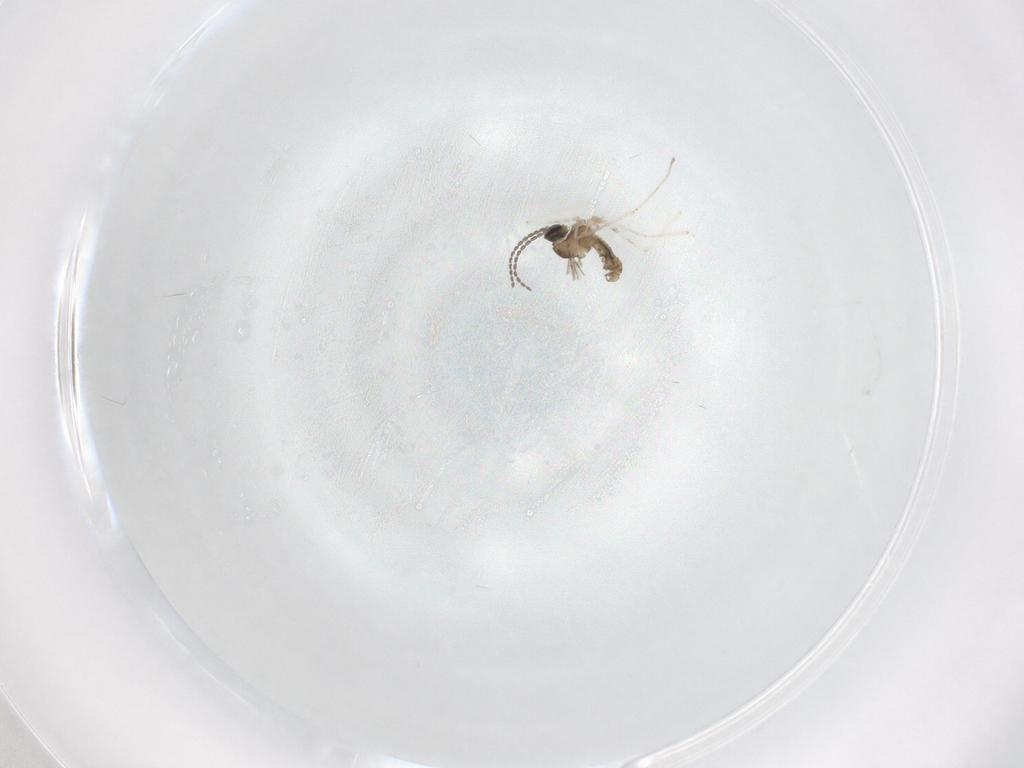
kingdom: Animalia
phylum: Arthropoda
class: Insecta
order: Diptera
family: Cecidomyiidae
